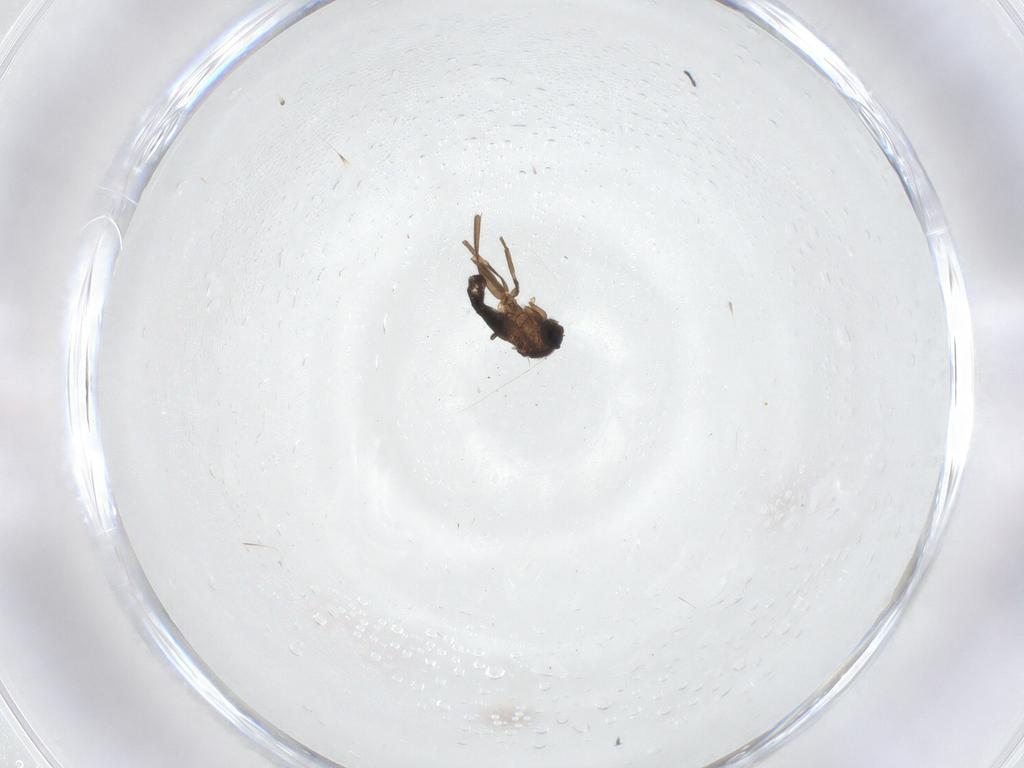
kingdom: Animalia
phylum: Arthropoda
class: Insecta
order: Diptera
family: Phoridae
